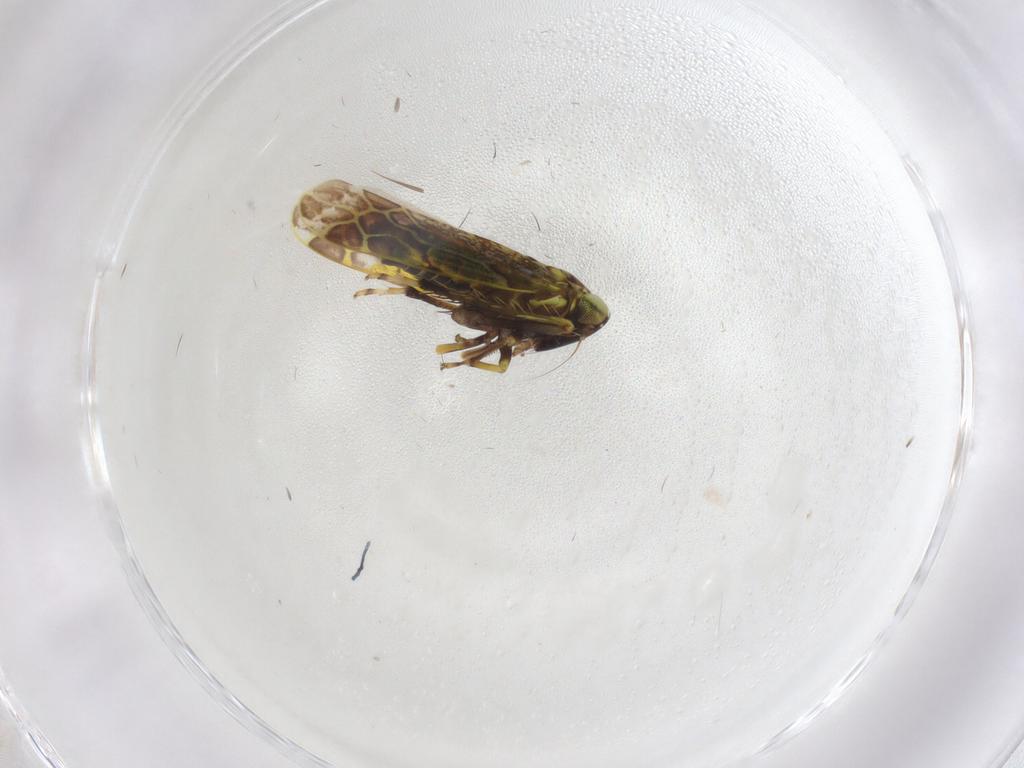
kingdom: Animalia
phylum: Arthropoda
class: Insecta
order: Hemiptera
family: Cicadellidae
